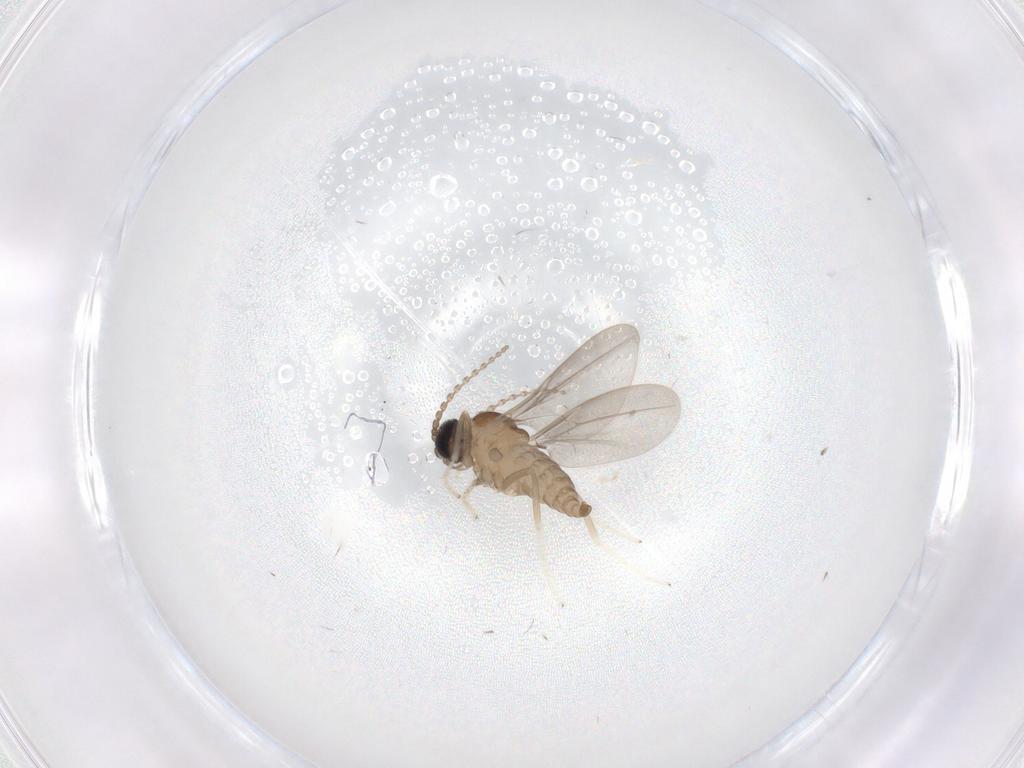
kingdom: Animalia
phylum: Arthropoda
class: Insecta
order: Diptera
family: Cecidomyiidae
